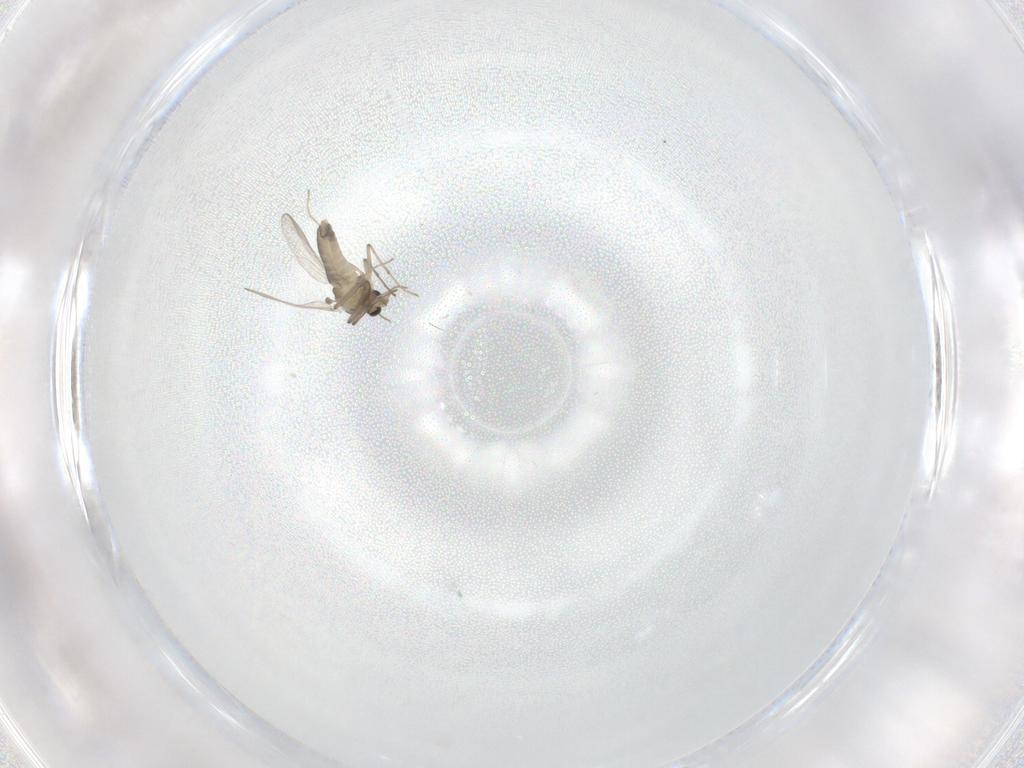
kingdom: Animalia
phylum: Arthropoda
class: Insecta
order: Diptera
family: Chironomidae
